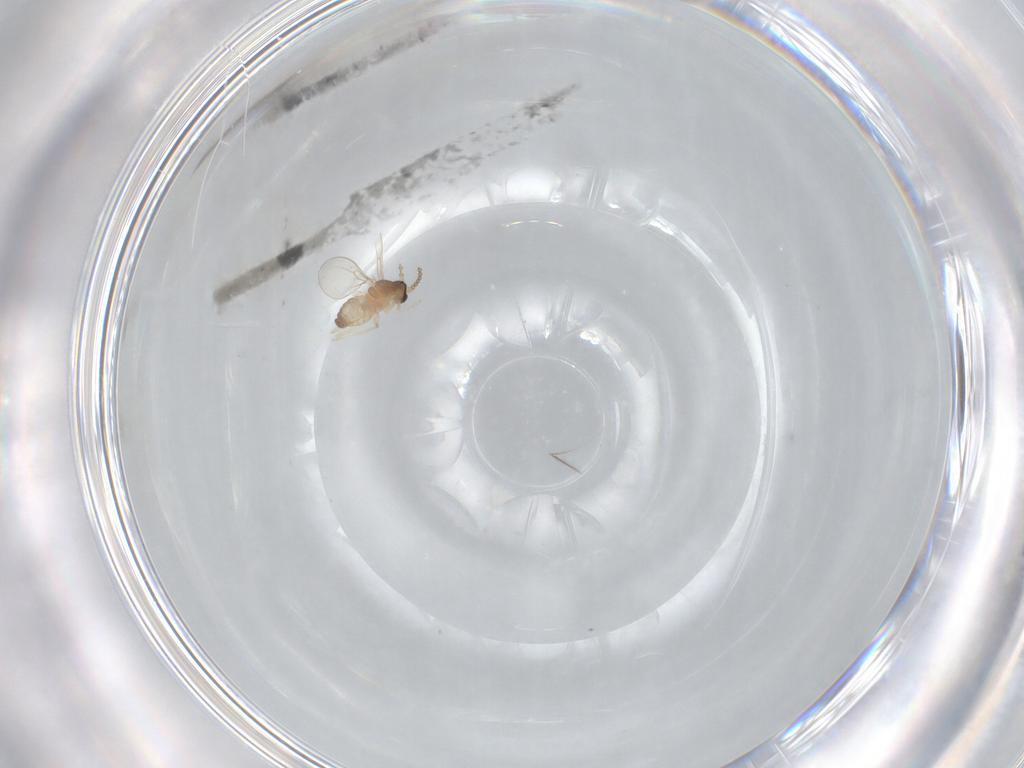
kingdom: Animalia
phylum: Arthropoda
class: Insecta
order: Diptera
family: Cecidomyiidae
